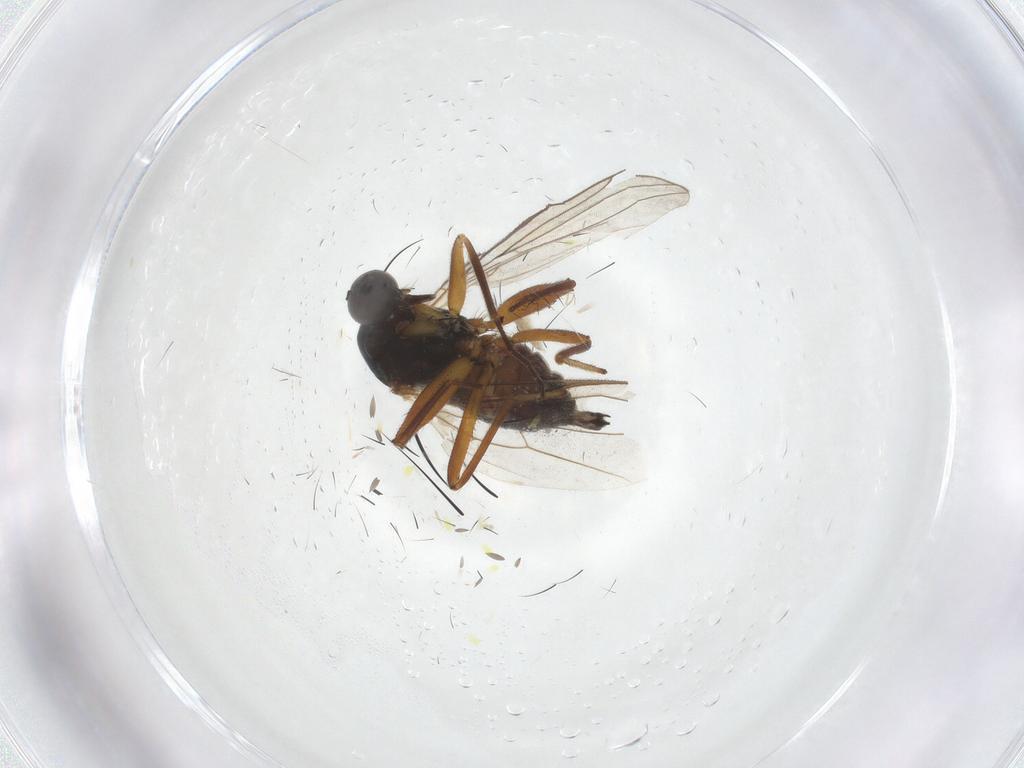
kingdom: Animalia
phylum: Arthropoda
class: Insecta
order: Diptera
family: Hybotidae
